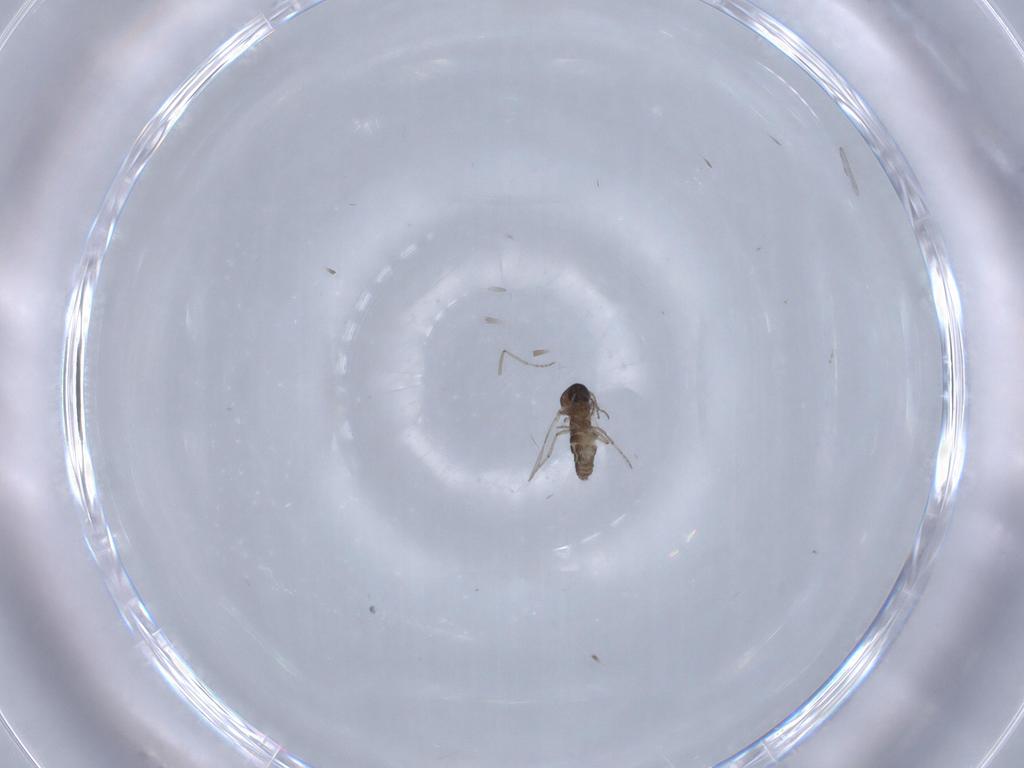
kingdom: Animalia
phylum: Arthropoda
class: Insecta
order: Diptera
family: Ceratopogonidae
